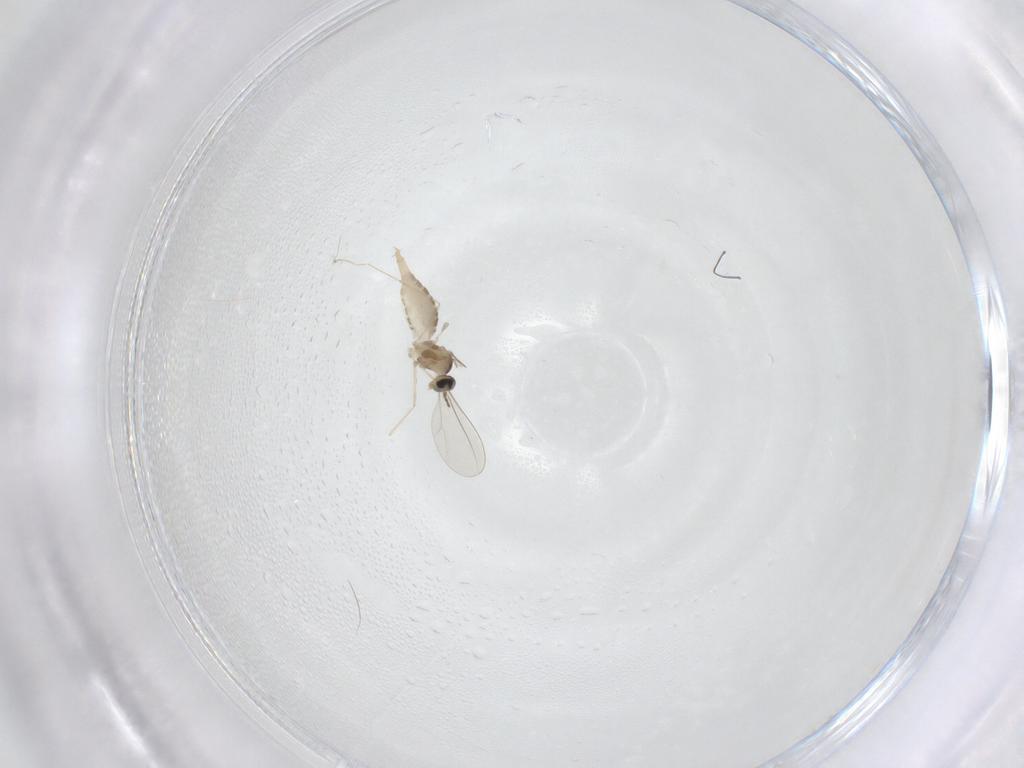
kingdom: Animalia
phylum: Arthropoda
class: Insecta
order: Diptera
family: Cecidomyiidae
